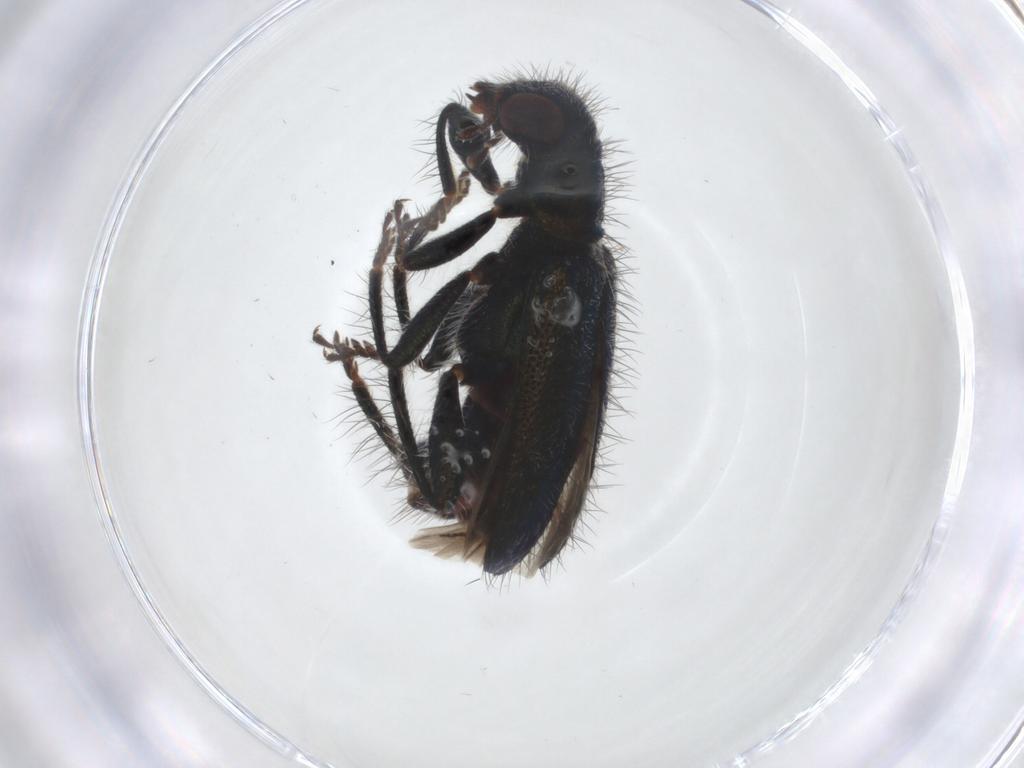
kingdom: Animalia
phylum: Arthropoda
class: Insecta
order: Coleoptera
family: Cleridae
